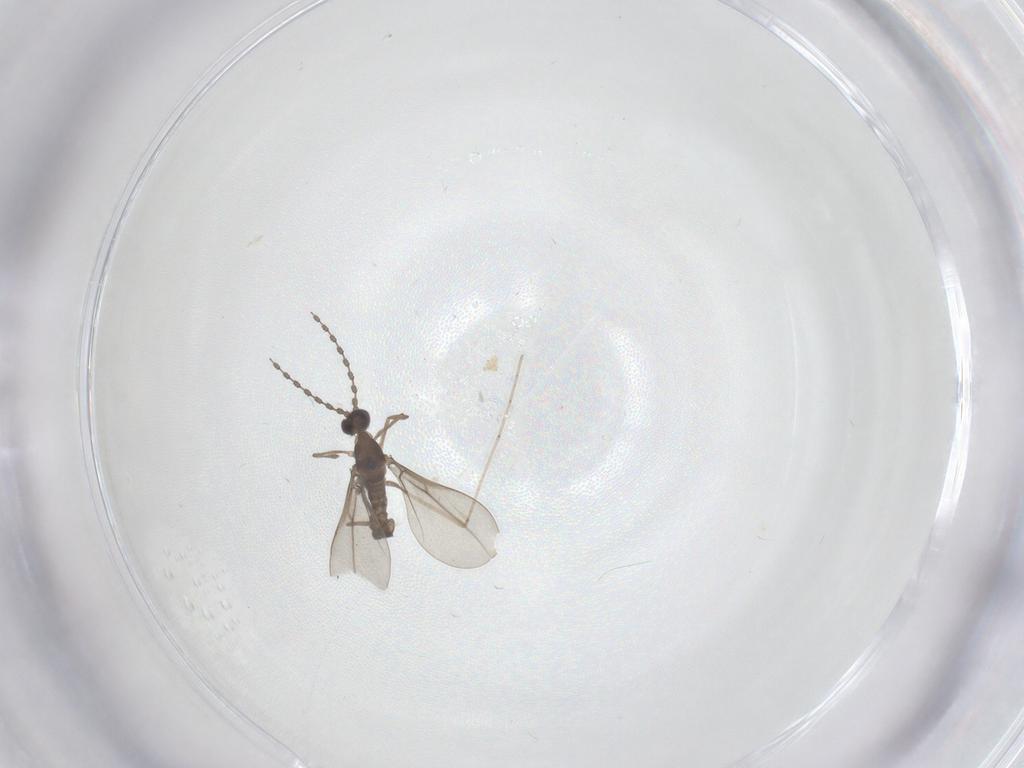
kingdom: Animalia
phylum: Arthropoda
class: Insecta
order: Diptera
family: Cecidomyiidae
